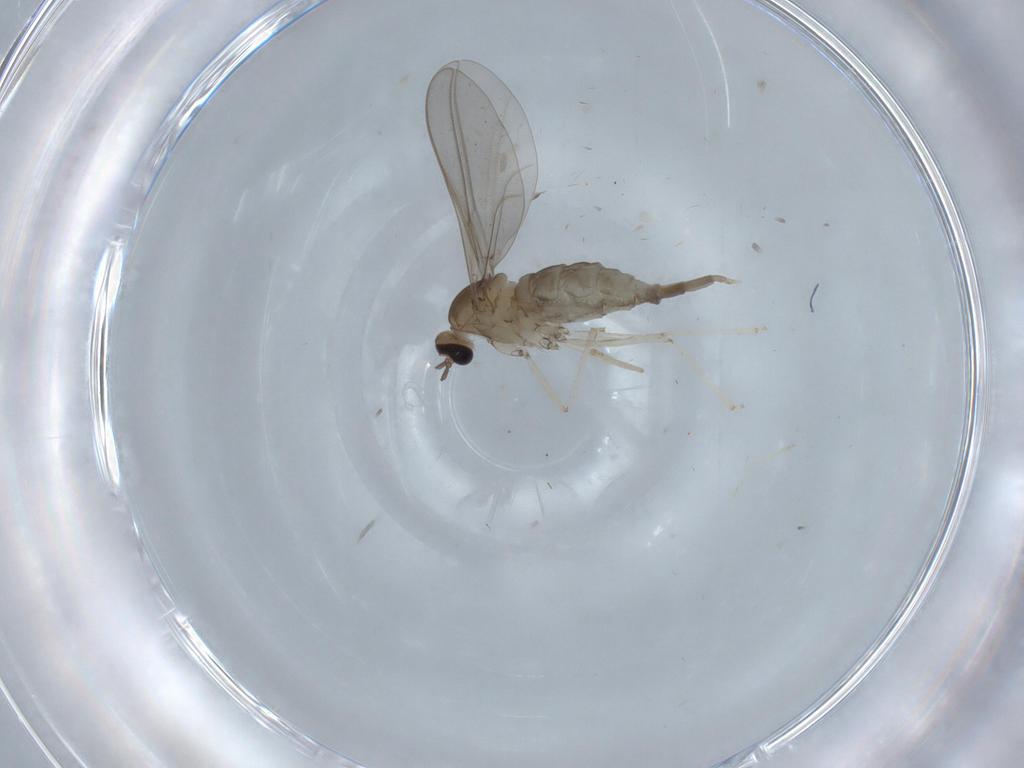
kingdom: Animalia
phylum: Arthropoda
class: Insecta
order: Diptera
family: Cecidomyiidae
